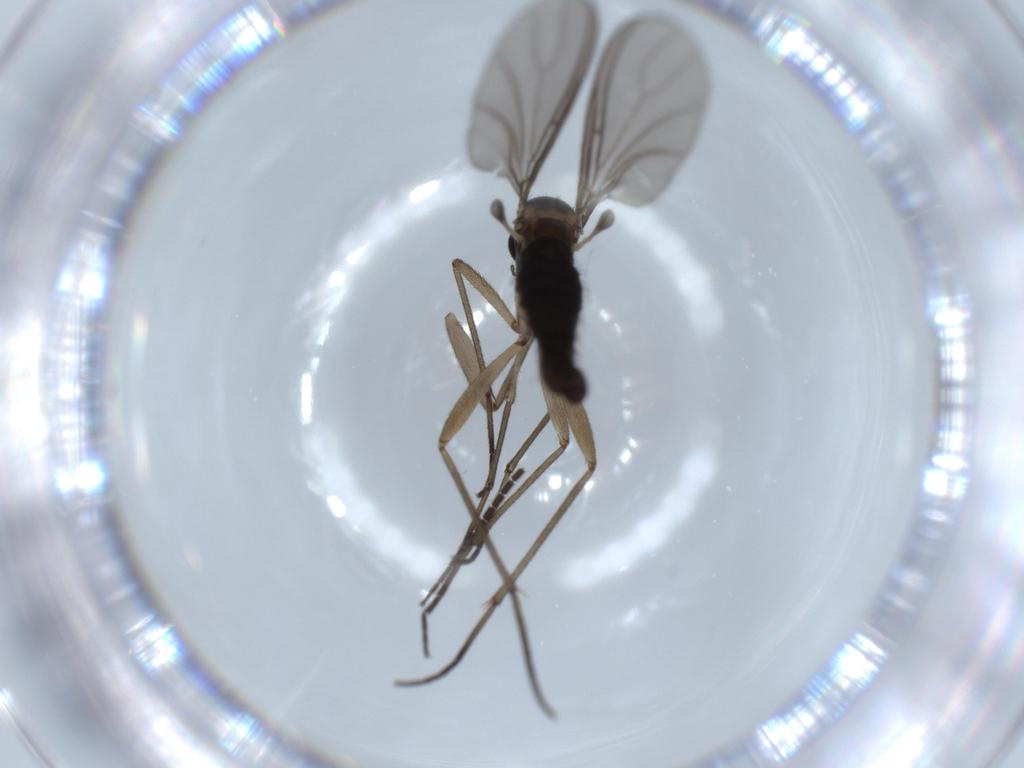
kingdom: Animalia
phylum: Arthropoda
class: Insecta
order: Diptera
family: Sciaridae
